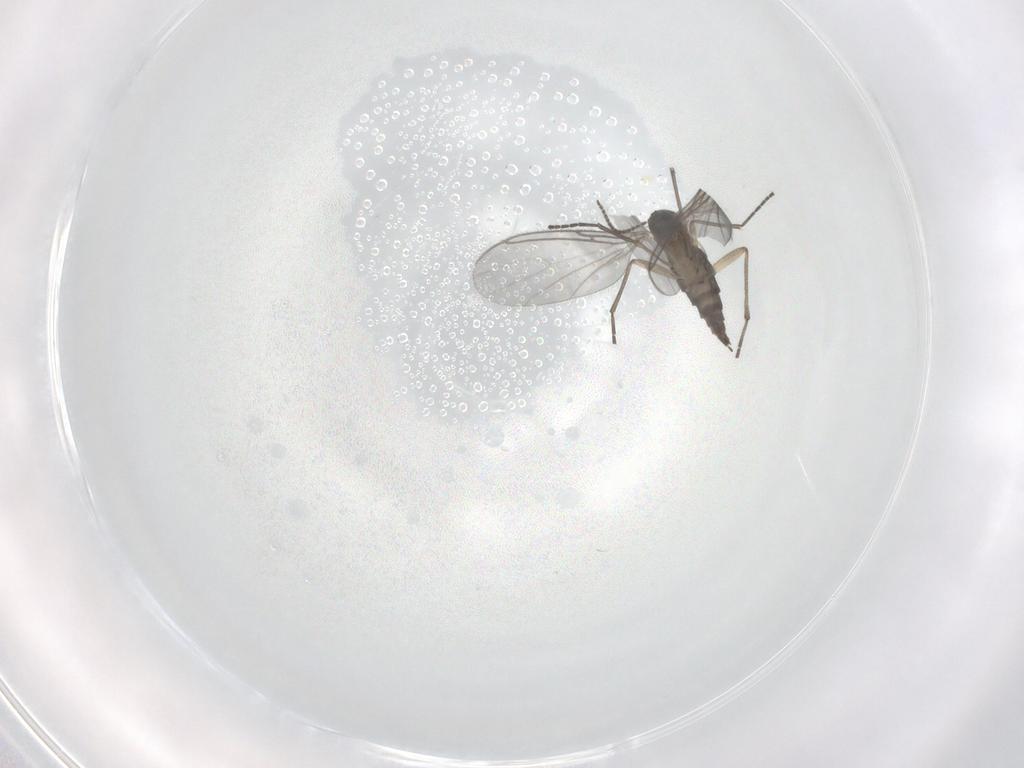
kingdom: Animalia
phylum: Arthropoda
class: Insecta
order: Diptera
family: Sciaridae
